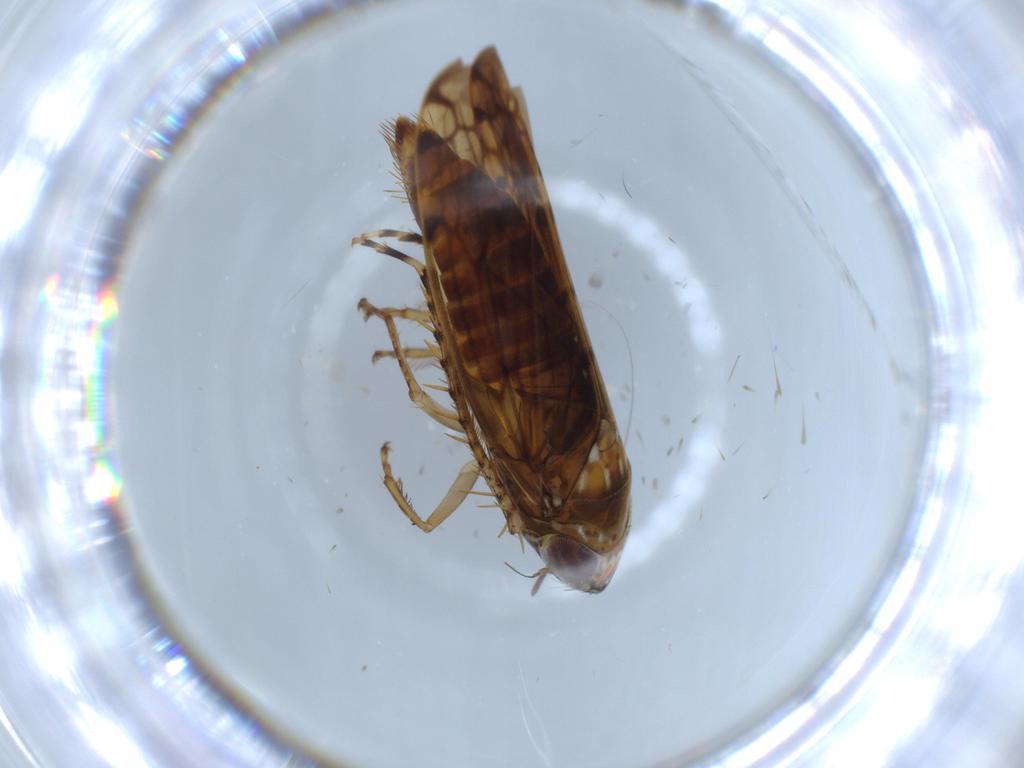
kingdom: Animalia
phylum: Arthropoda
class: Insecta
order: Hemiptera
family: Cicadellidae
